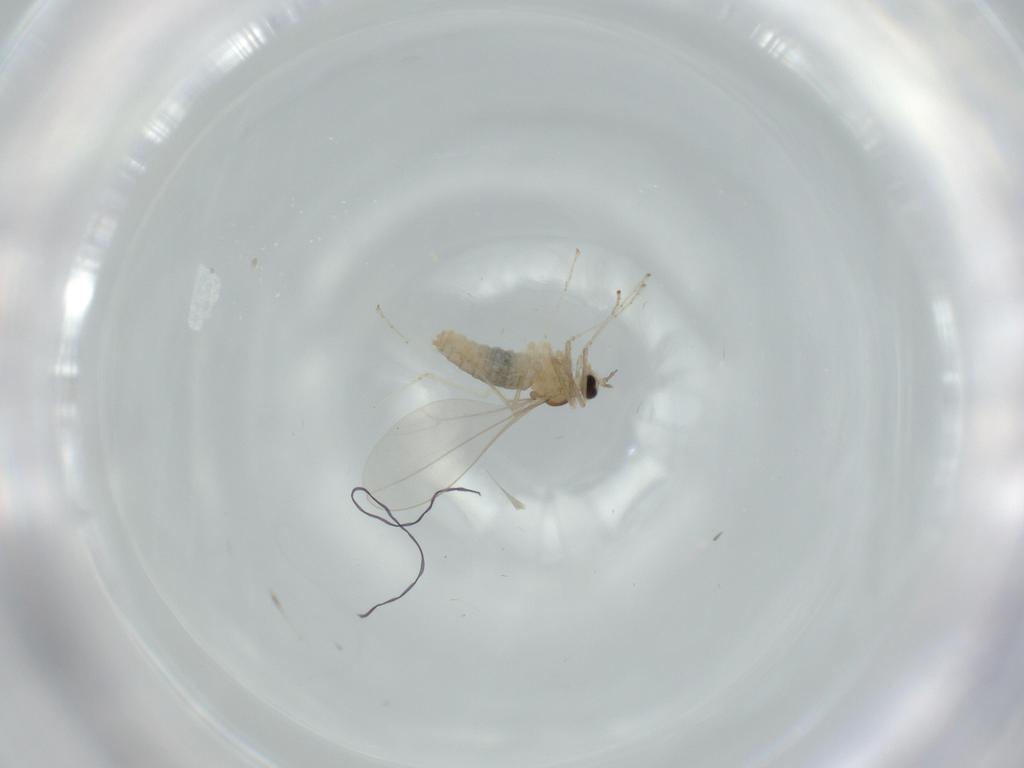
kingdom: Animalia
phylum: Arthropoda
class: Insecta
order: Diptera
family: Cecidomyiidae
